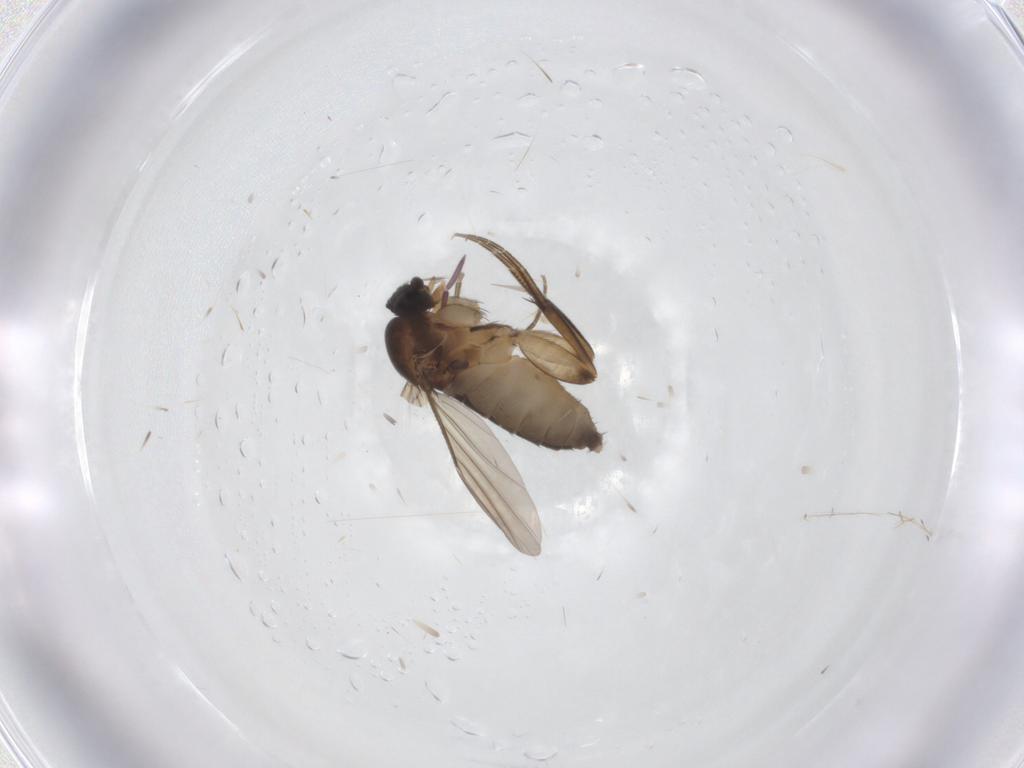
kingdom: Animalia
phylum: Arthropoda
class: Insecta
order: Diptera
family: Phoridae
